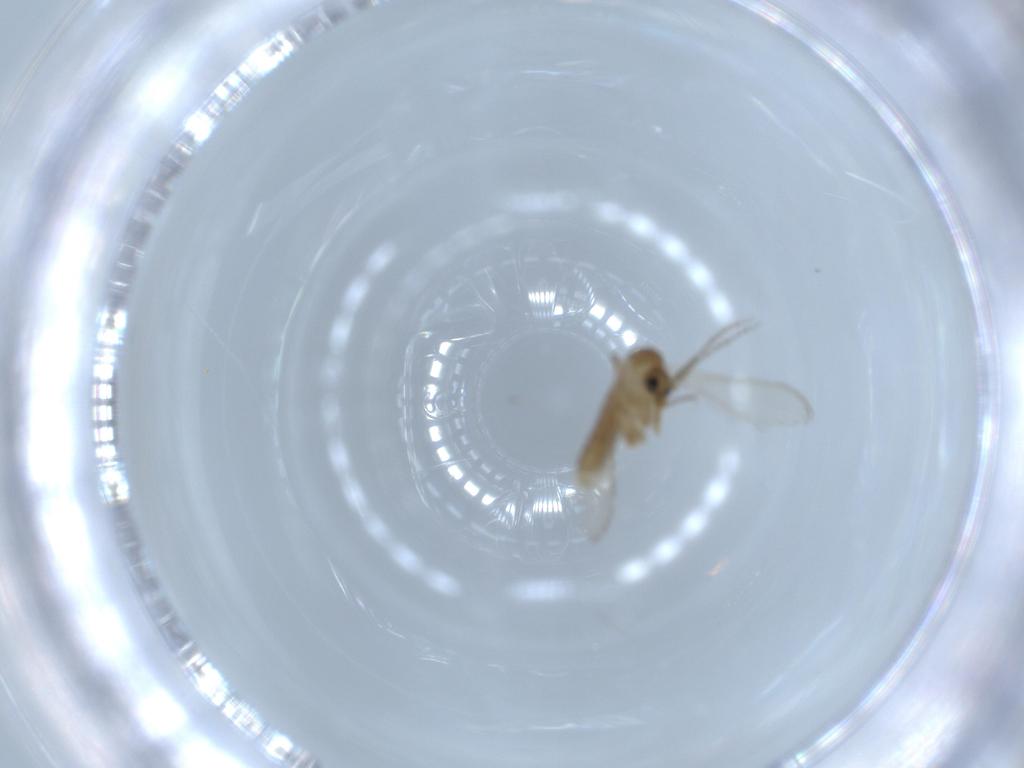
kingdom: Animalia
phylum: Arthropoda
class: Insecta
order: Diptera
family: Psychodidae
